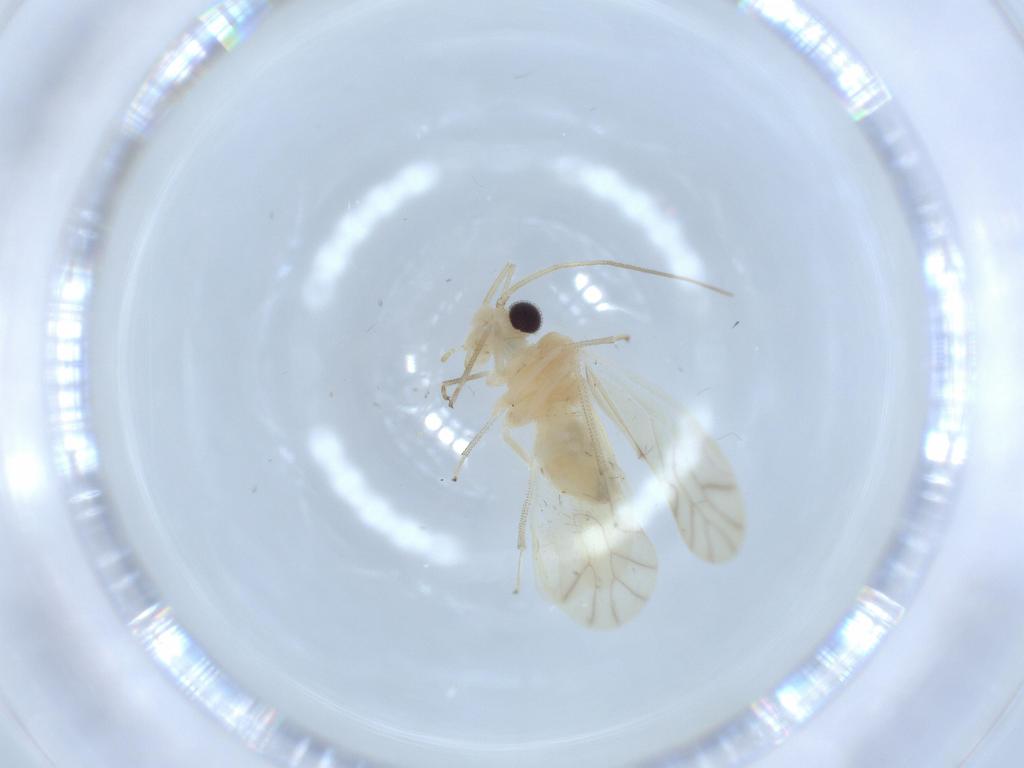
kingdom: Animalia
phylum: Arthropoda
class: Insecta
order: Psocodea
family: Caeciliusidae
